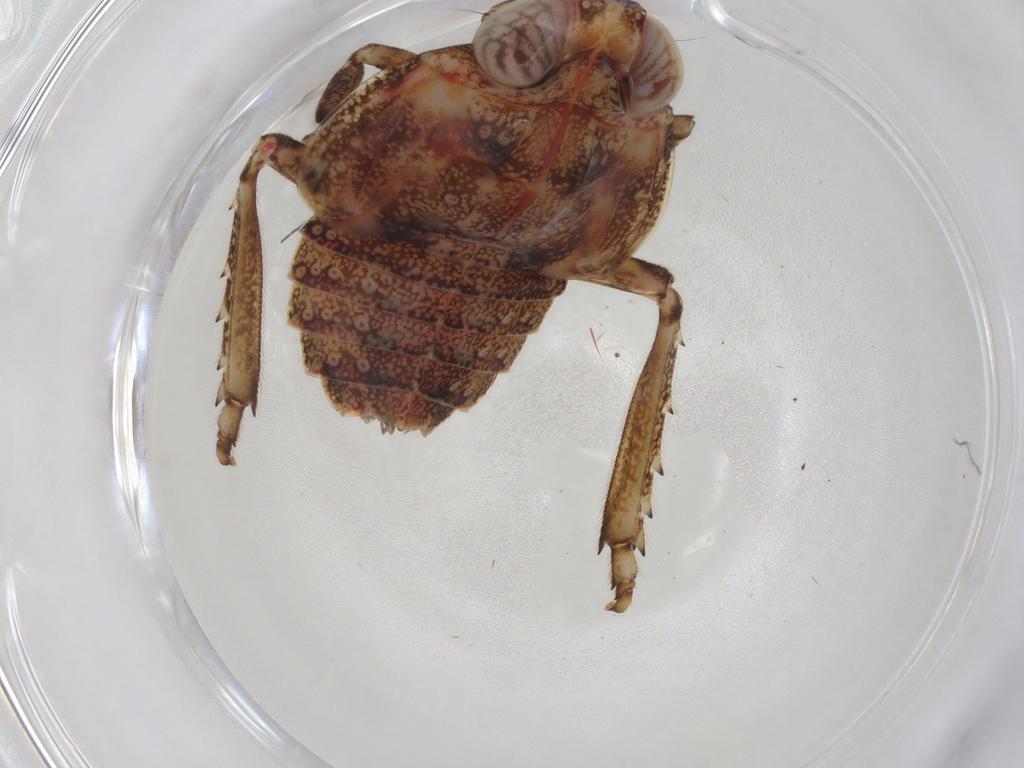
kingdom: Animalia
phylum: Arthropoda
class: Insecta
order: Hemiptera
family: Issidae
